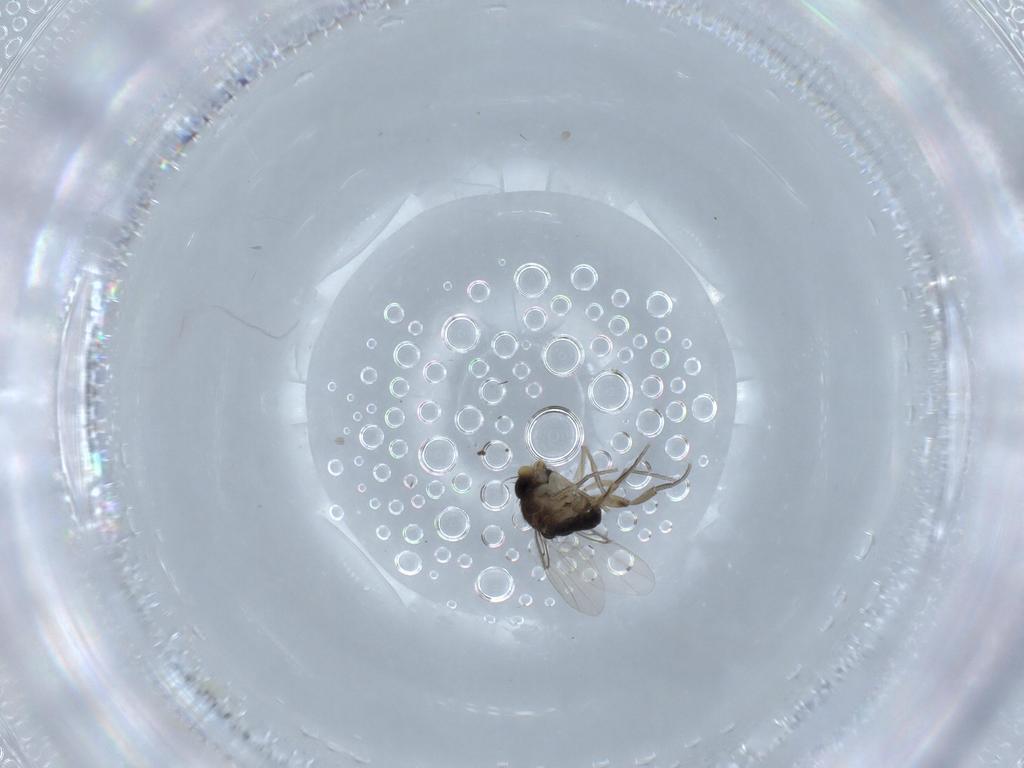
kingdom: Animalia
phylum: Arthropoda
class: Insecta
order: Diptera
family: Phoridae
